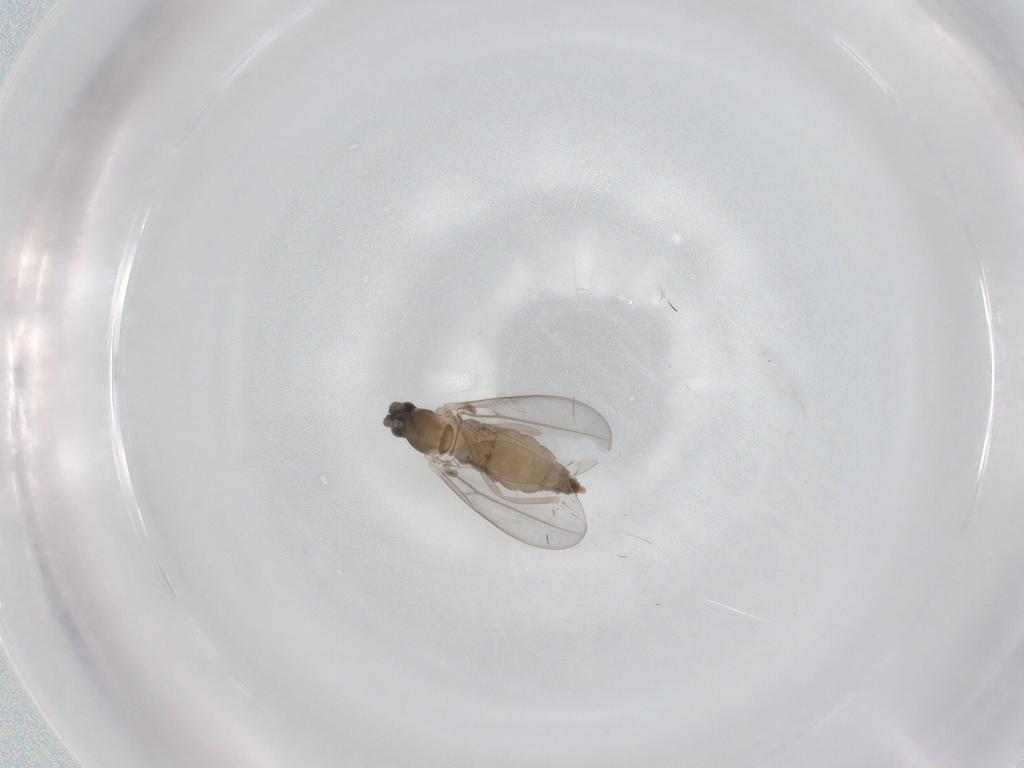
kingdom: Animalia
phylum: Arthropoda
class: Insecta
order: Diptera
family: Cecidomyiidae
